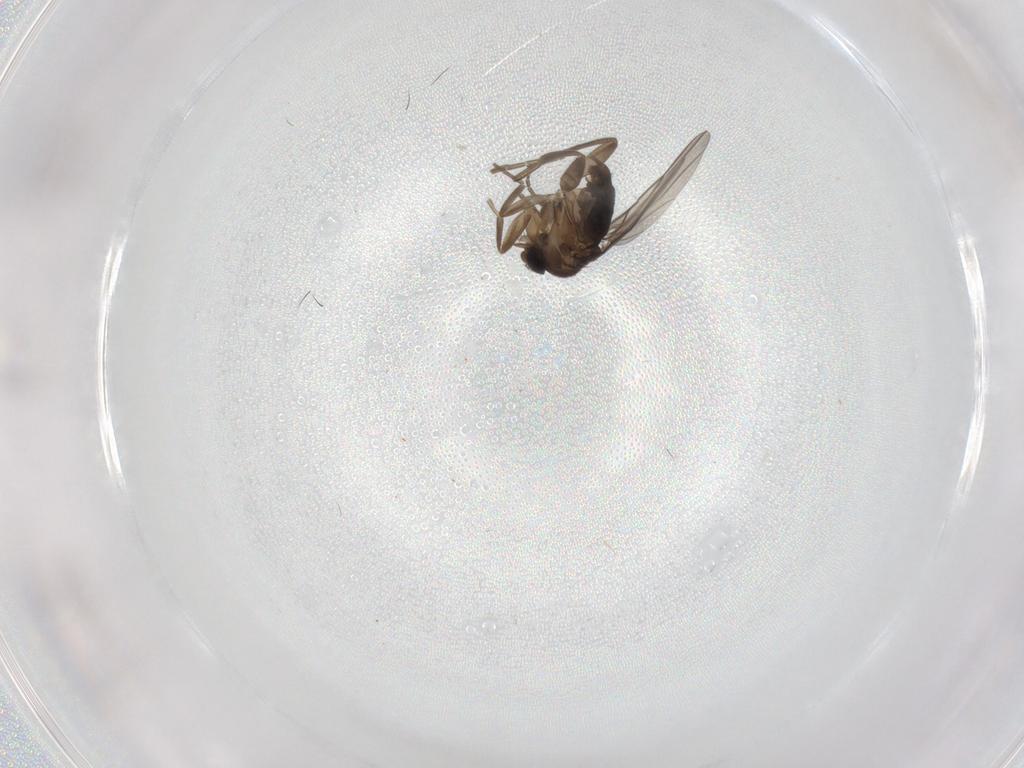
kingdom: Animalia
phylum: Arthropoda
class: Insecta
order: Diptera
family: Phoridae
